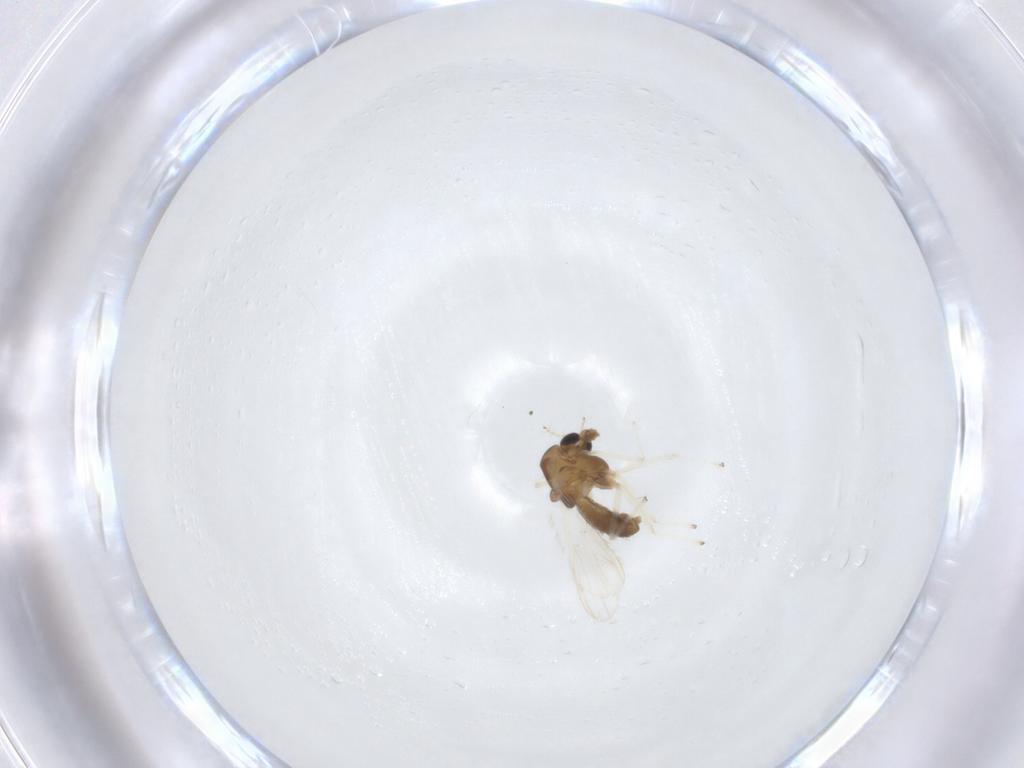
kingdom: Animalia
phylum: Arthropoda
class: Insecta
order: Diptera
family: Chironomidae
